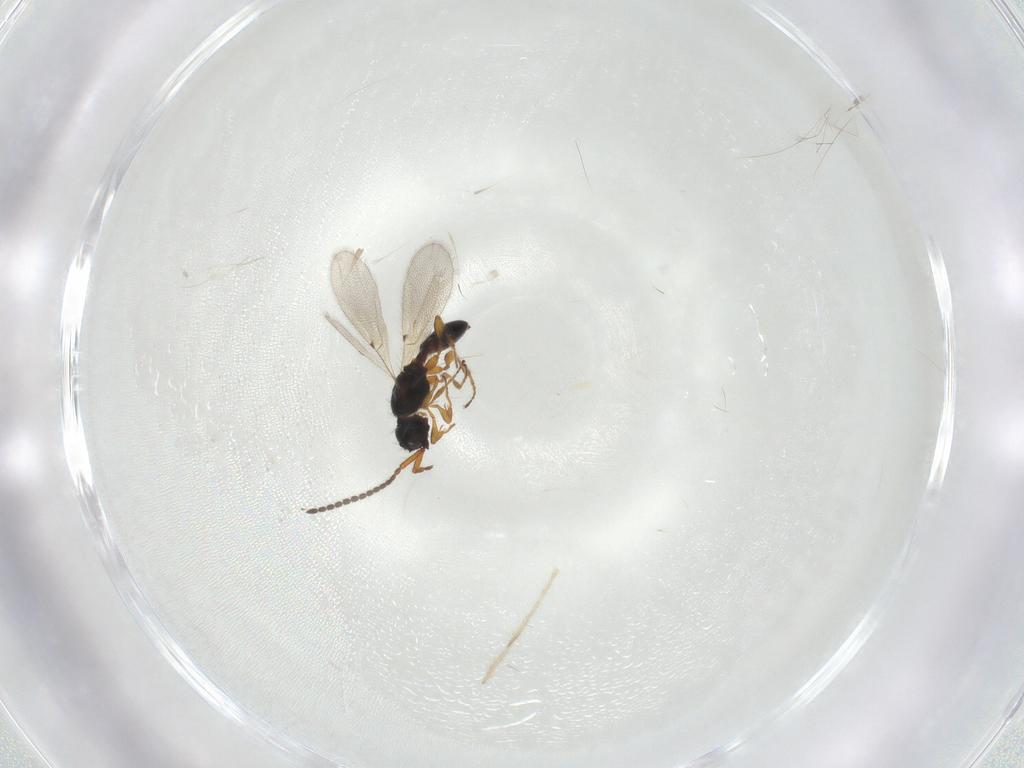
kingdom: Animalia
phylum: Arthropoda
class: Insecta
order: Hymenoptera
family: Diapriidae
